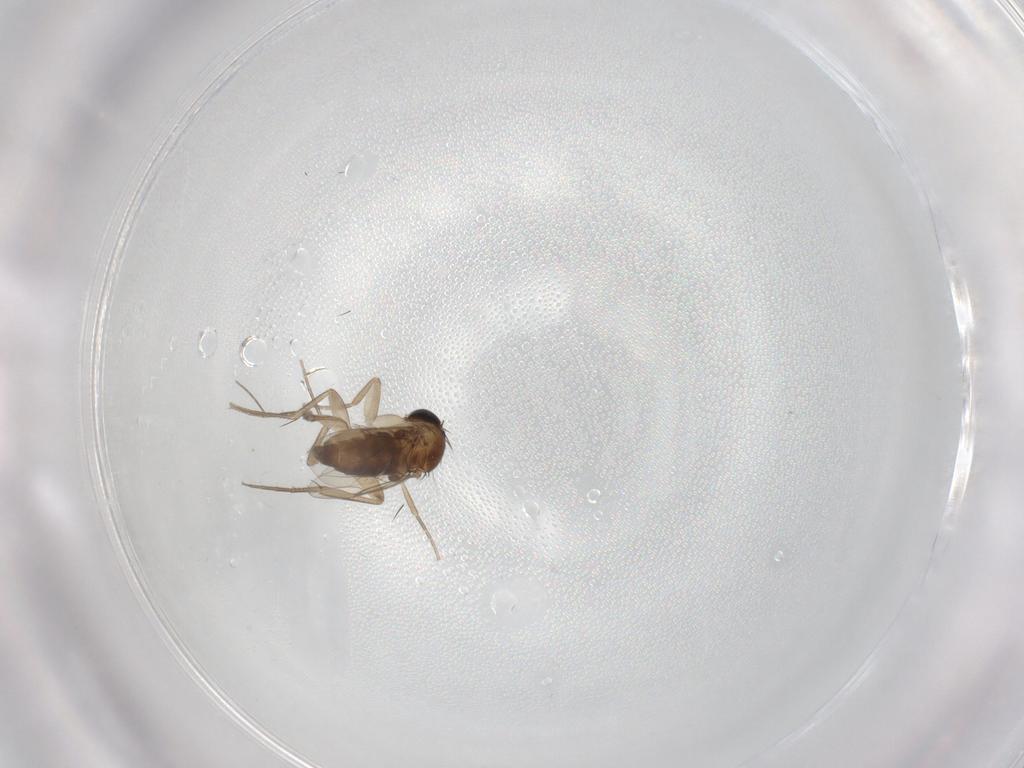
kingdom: Animalia
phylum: Arthropoda
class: Insecta
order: Diptera
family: Phoridae
